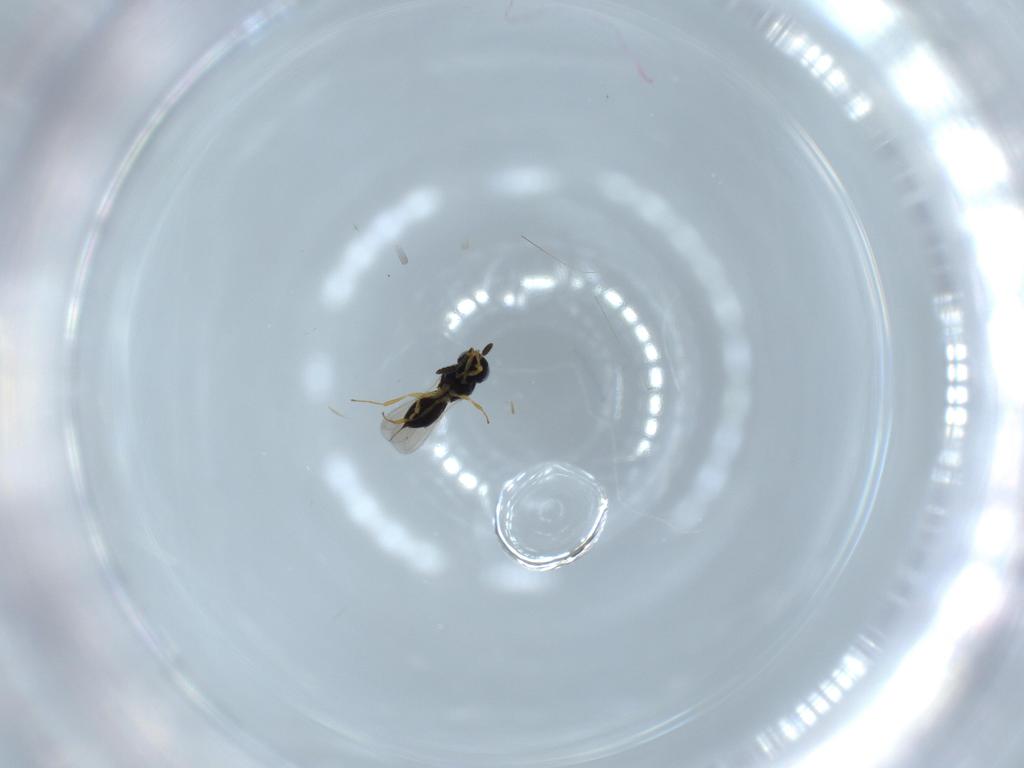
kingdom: Animalia
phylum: Arthropoda
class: Insecta
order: Hymenoptera
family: Scelionidae
